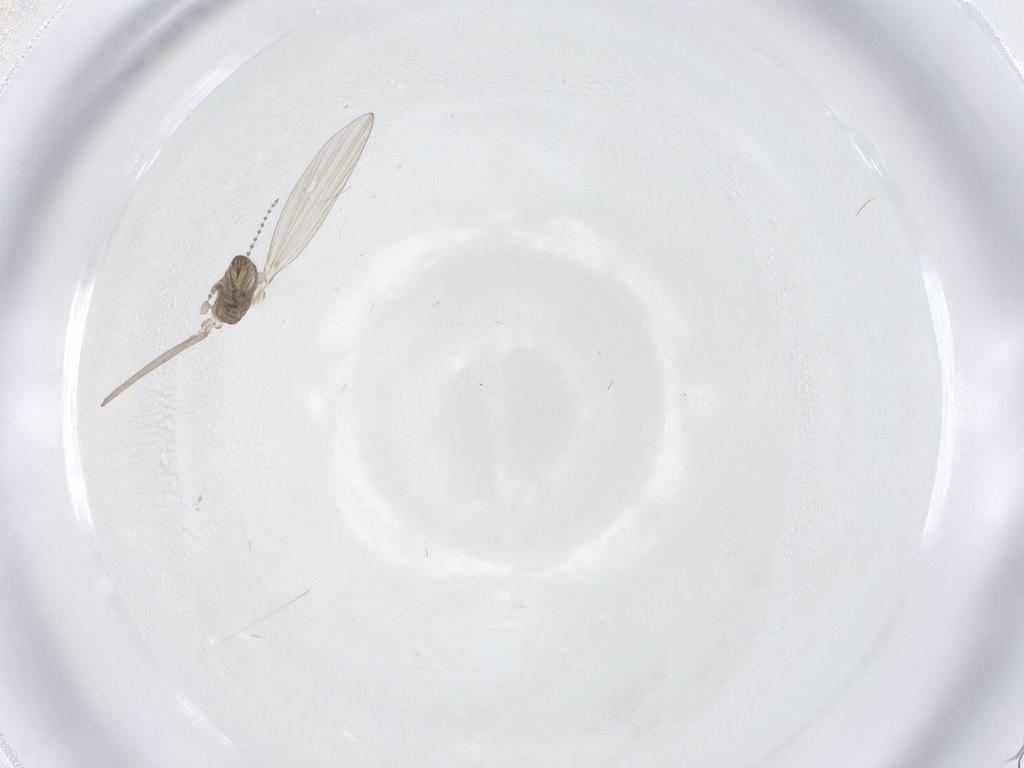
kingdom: Animalia
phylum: Arthropoda
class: Insecta
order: Diptera
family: Psychodidae
